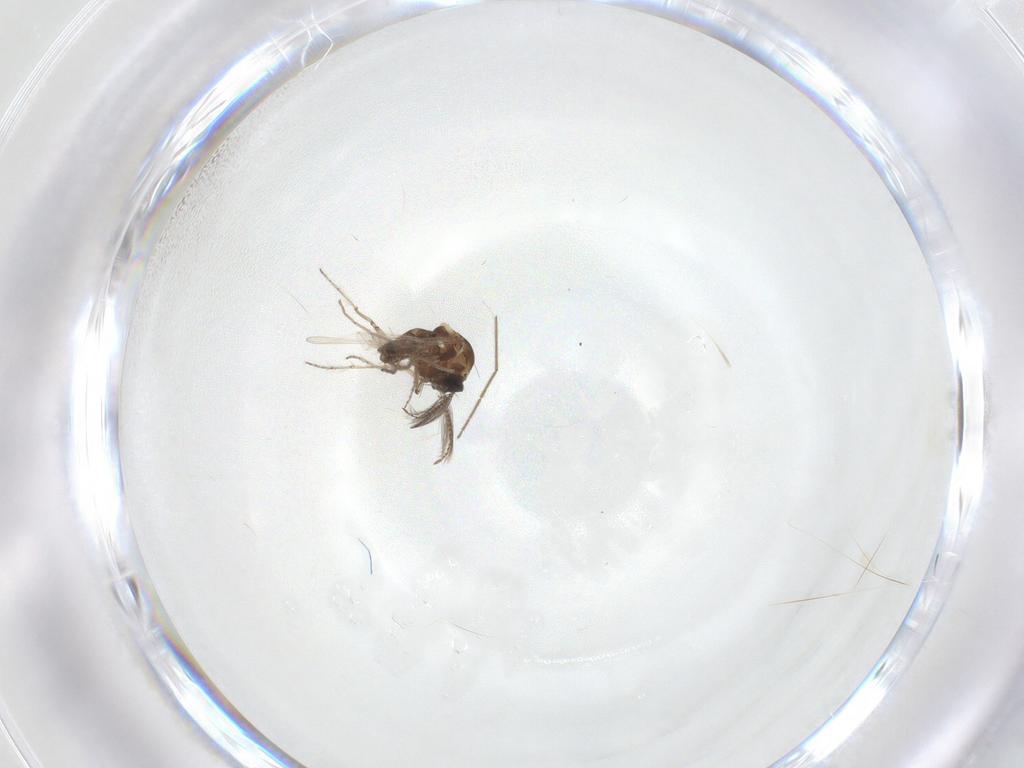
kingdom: Animalia
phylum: Arthropoda
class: Insecta
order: Diptera
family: Ceratopogonidae
